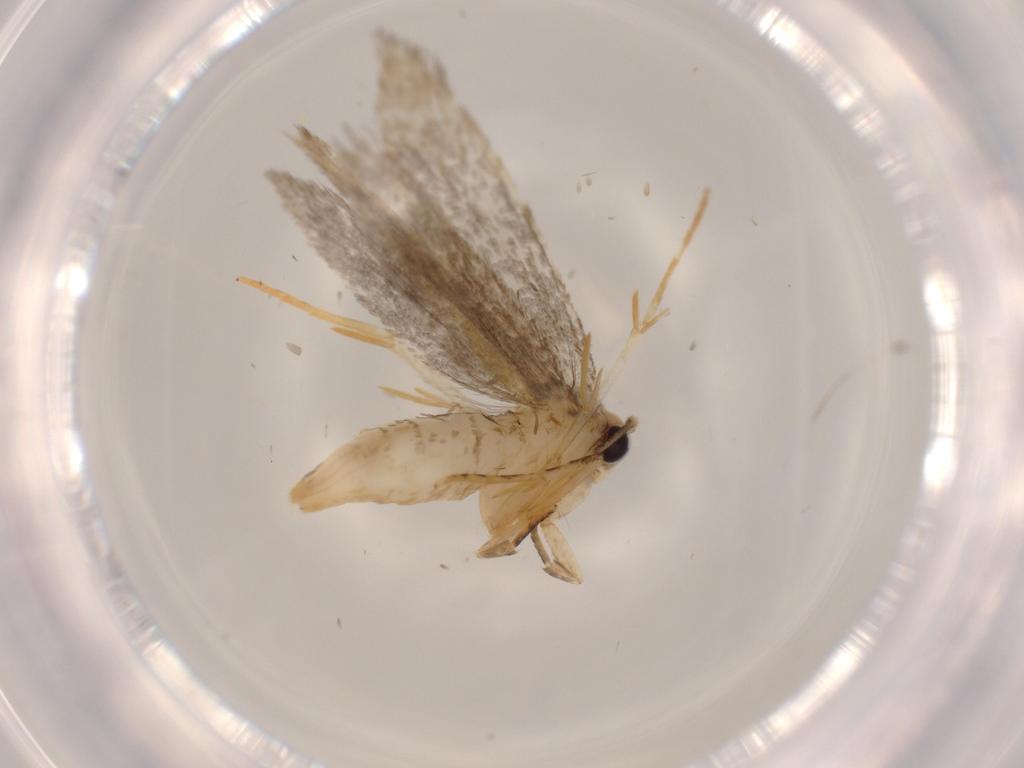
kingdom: Animalia
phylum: Arthropoda
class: Insecta
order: Lepidoptera
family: Tineidae
